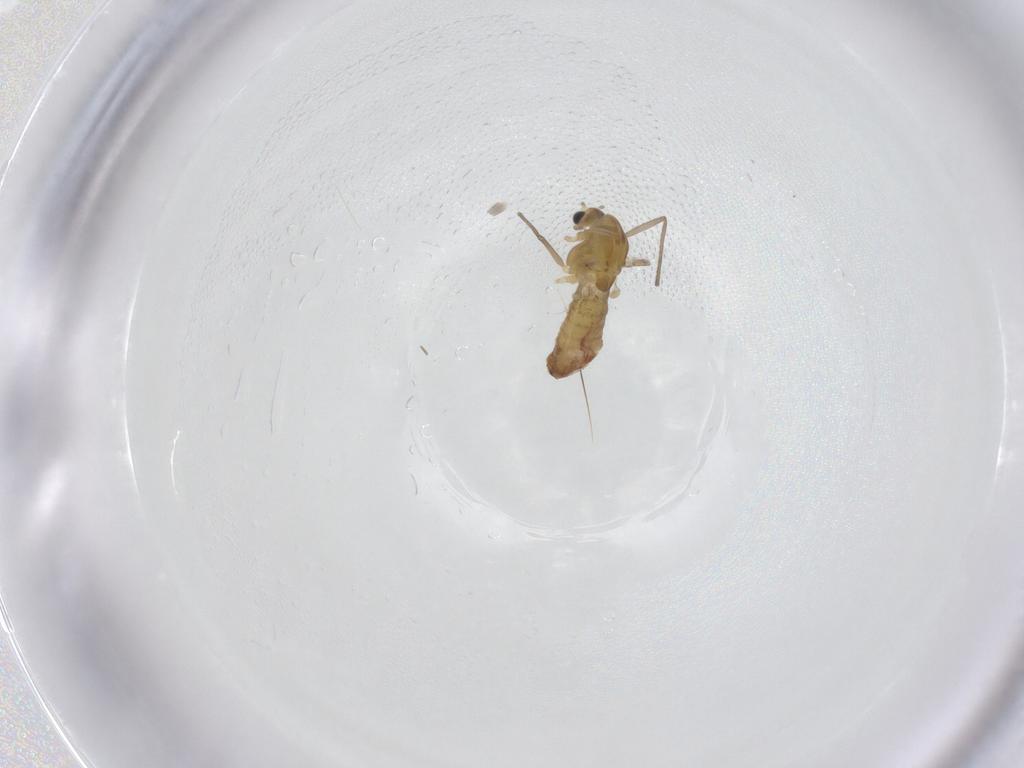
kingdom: Animalia
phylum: Arthropoda
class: Insecta
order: Diptera
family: Chironomidae
